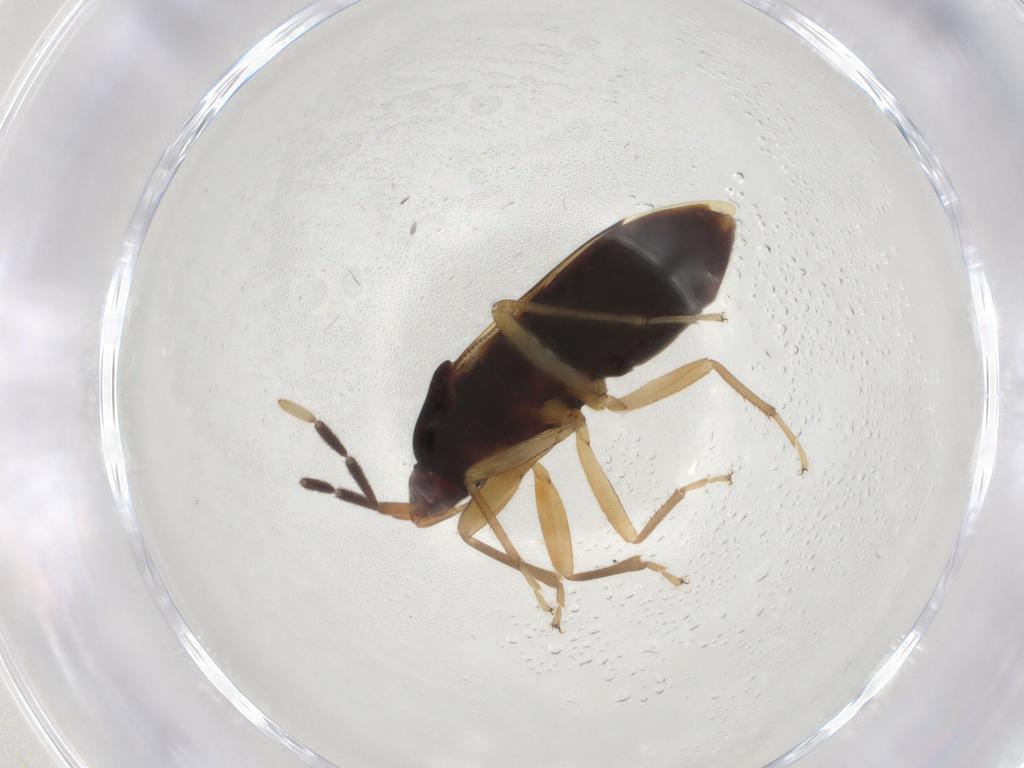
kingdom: Animalia
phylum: Arthropoda
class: Insecta
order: Hemiptera
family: Rhyparochromidae
